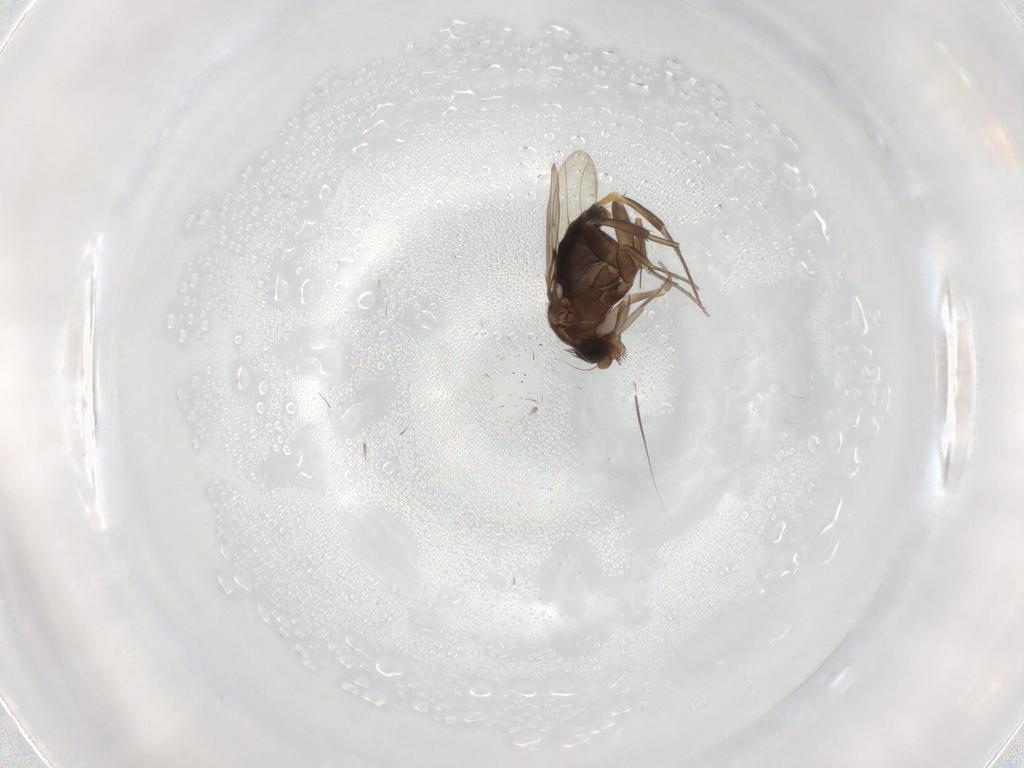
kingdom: Animalia
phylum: Arthropoda
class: Insecta
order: Diptera
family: Phoridae
